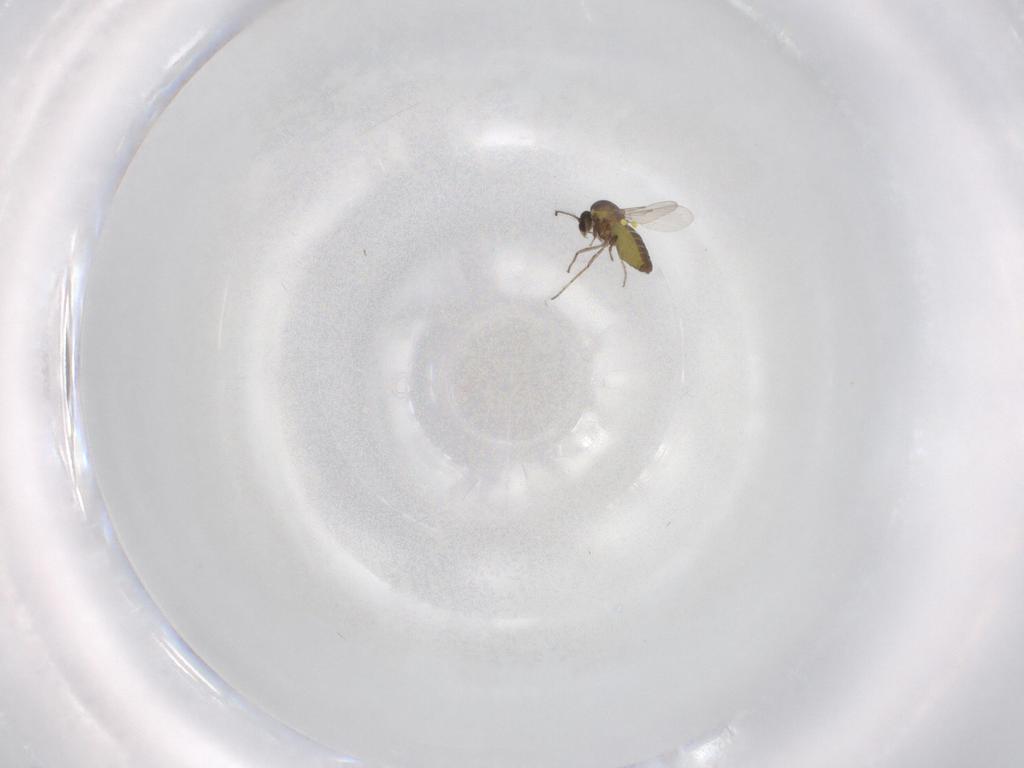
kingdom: Animalia
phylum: Arthropoda
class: Insecta
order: Diptera
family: Ceratopogonidae
